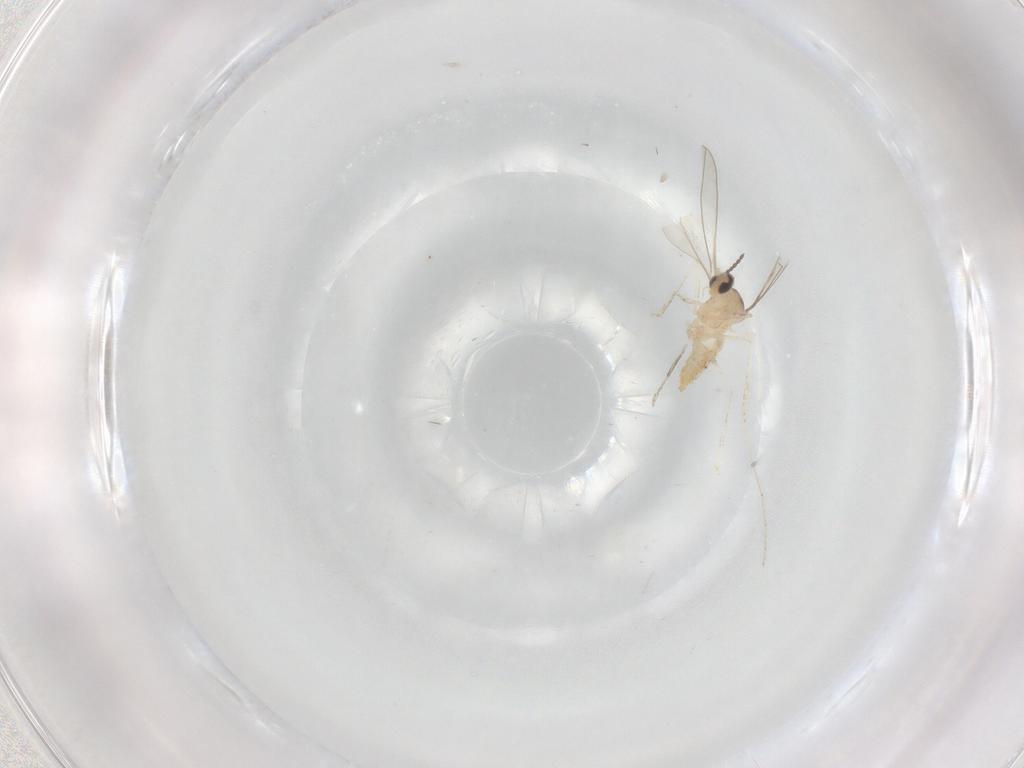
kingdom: Animalia
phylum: Arthropoda
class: Insecta
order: Diptera
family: Cecidomyiidae
